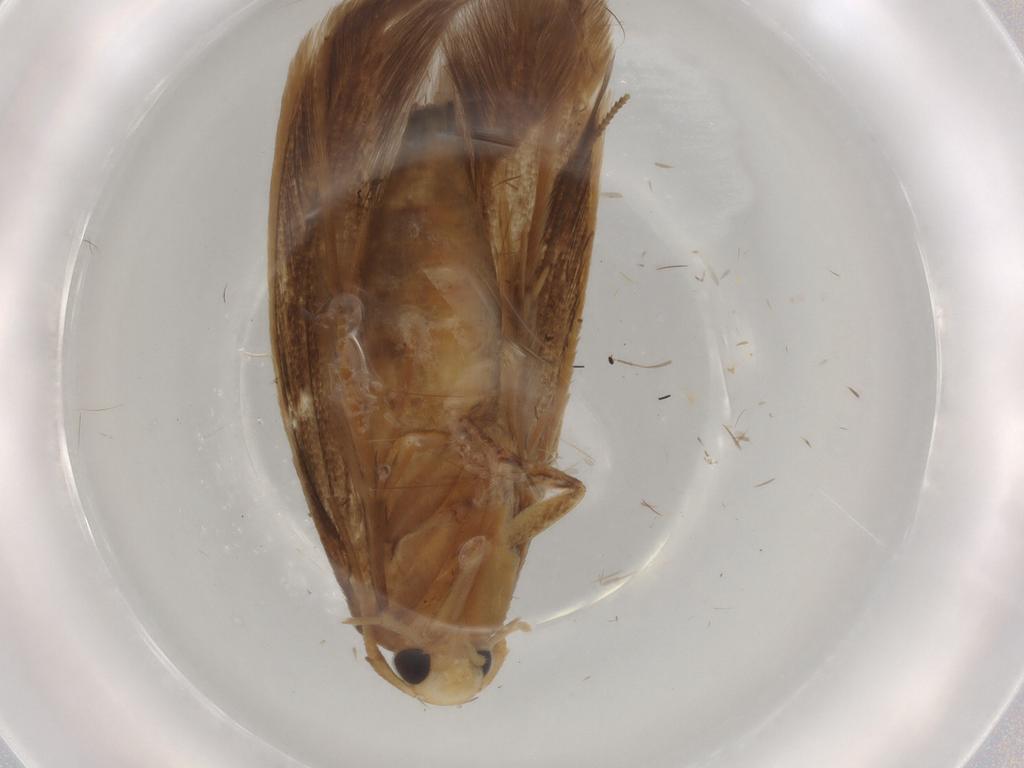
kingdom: Animalia
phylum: Arthropoda
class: Insecta
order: Lepidoptera
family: Tineidae
